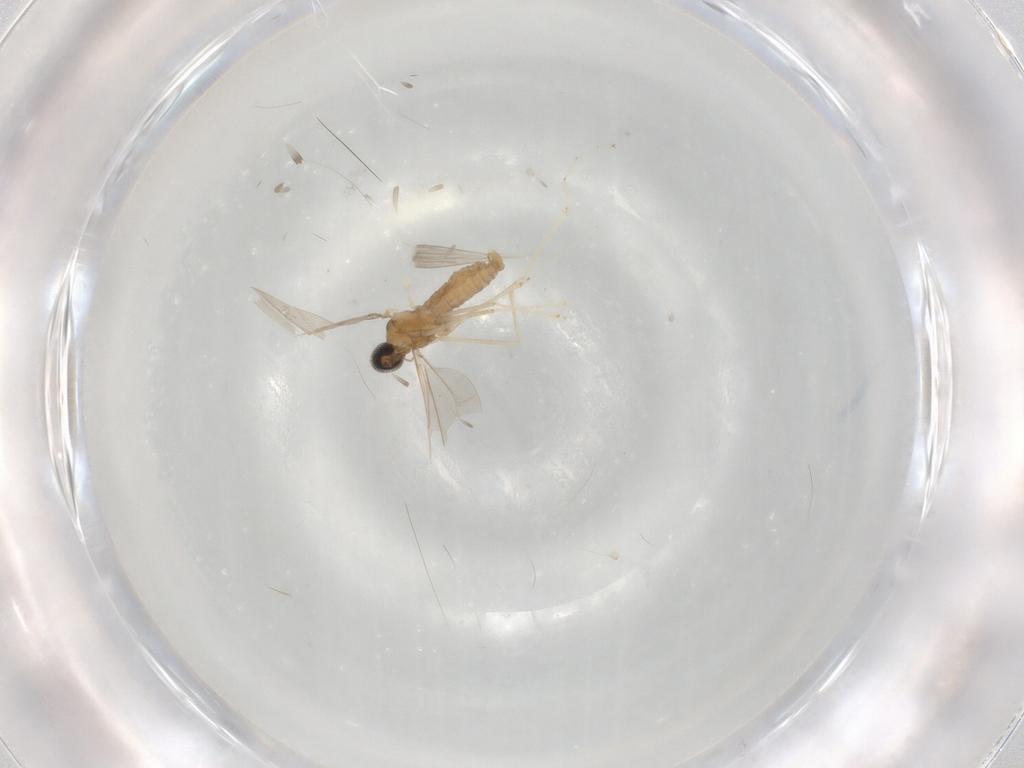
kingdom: Animalia
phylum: Arthropoda
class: Insecta
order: Diptera
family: Cecidomyiidae
